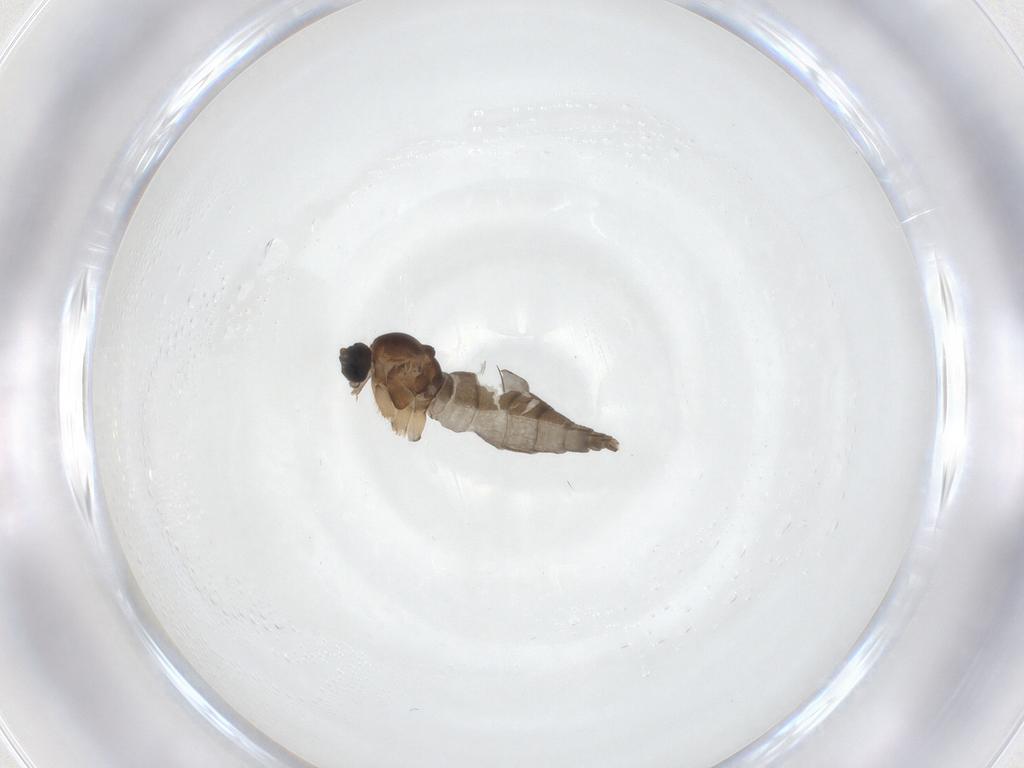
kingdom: Animalia
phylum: Arthropoda
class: Insecta
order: Diptera
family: Sciaridae
